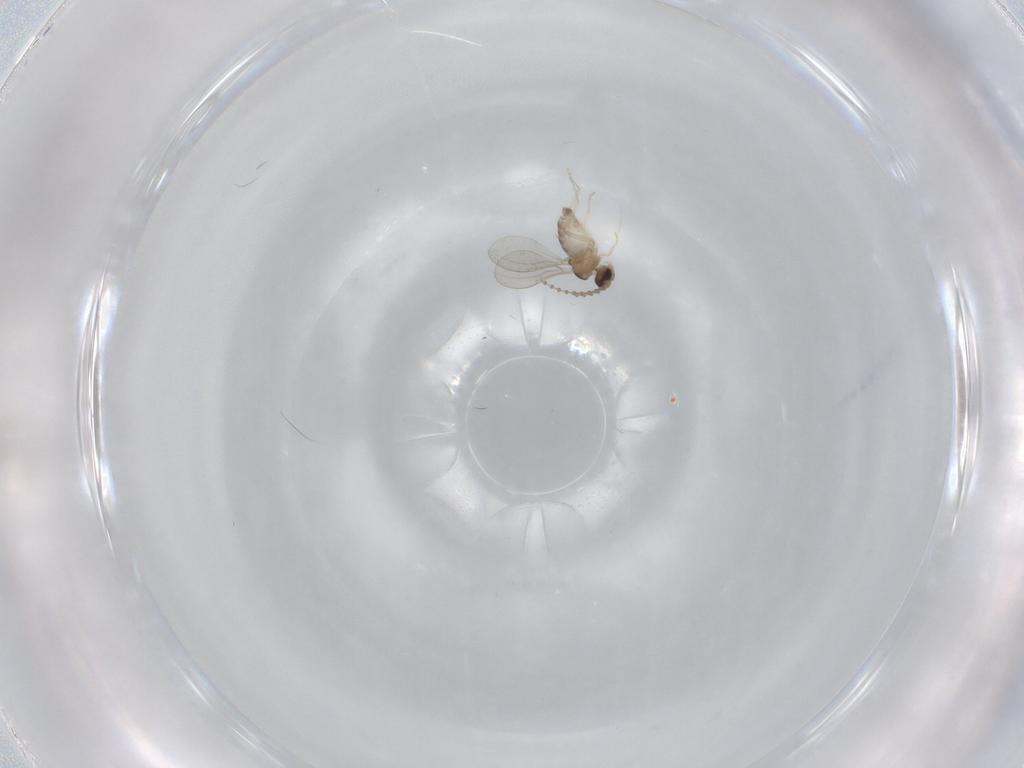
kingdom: Animalia
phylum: Arthropoda
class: Insecta
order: Diptera
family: Cecidomyiidae
